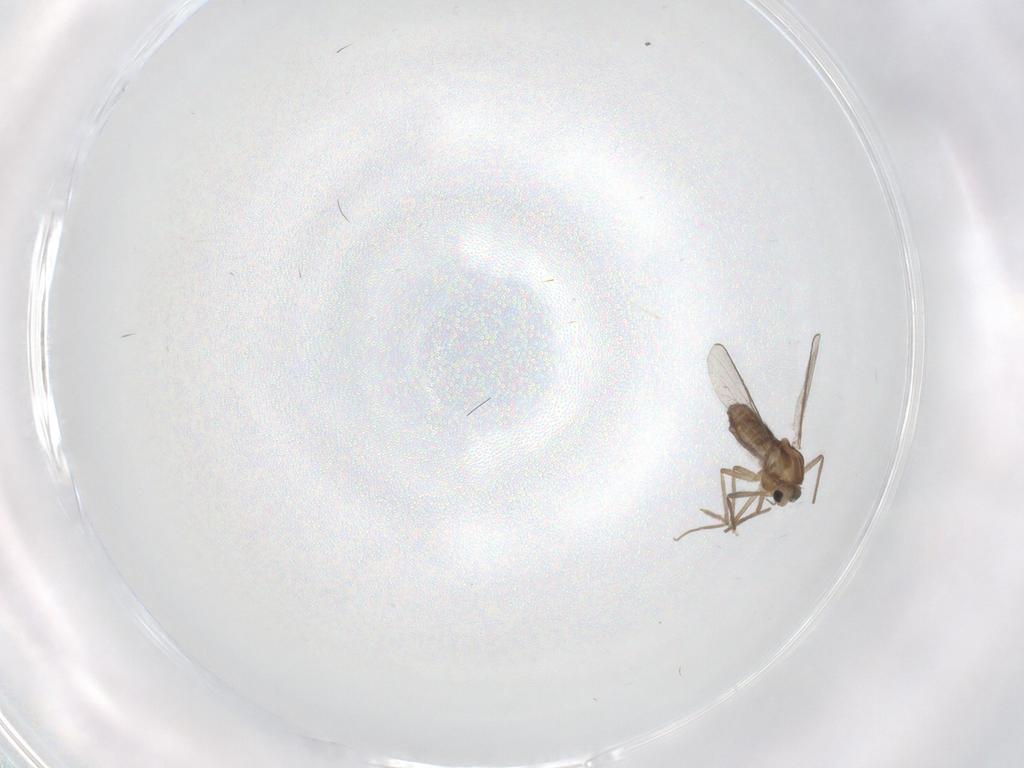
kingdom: Animalia
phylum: Arthropoda
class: Insecta
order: Diptera
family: Chironomidae
